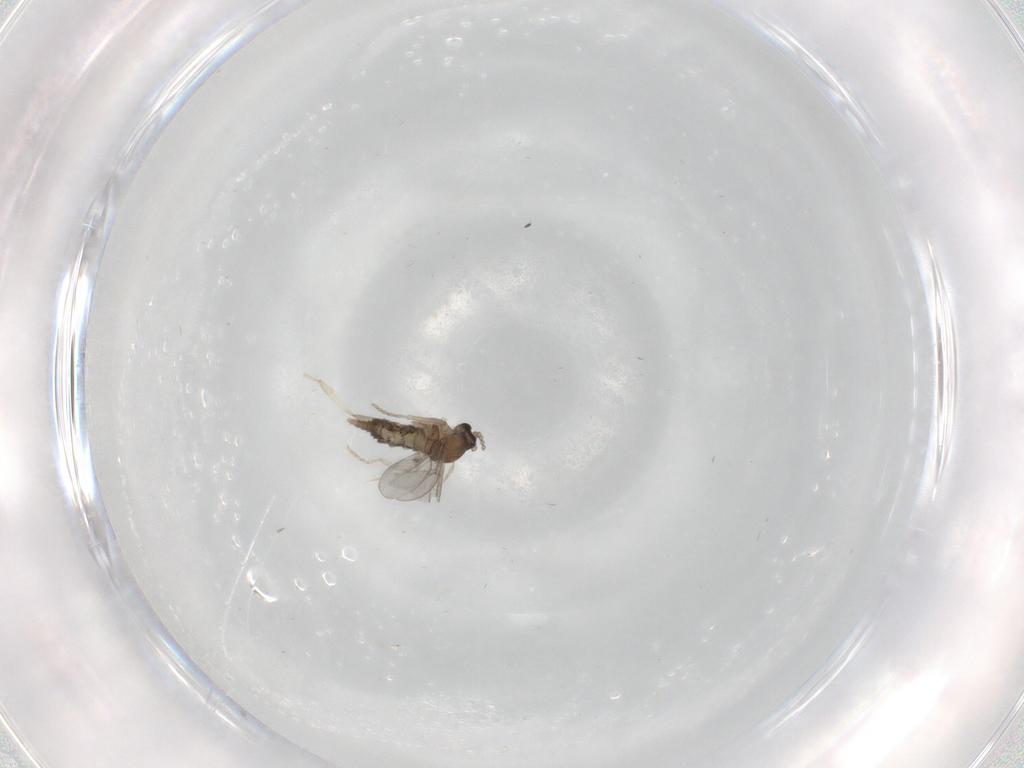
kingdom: Animalia
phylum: Arthropoda
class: Insecta
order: Diptera
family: Cecidomyiidae
